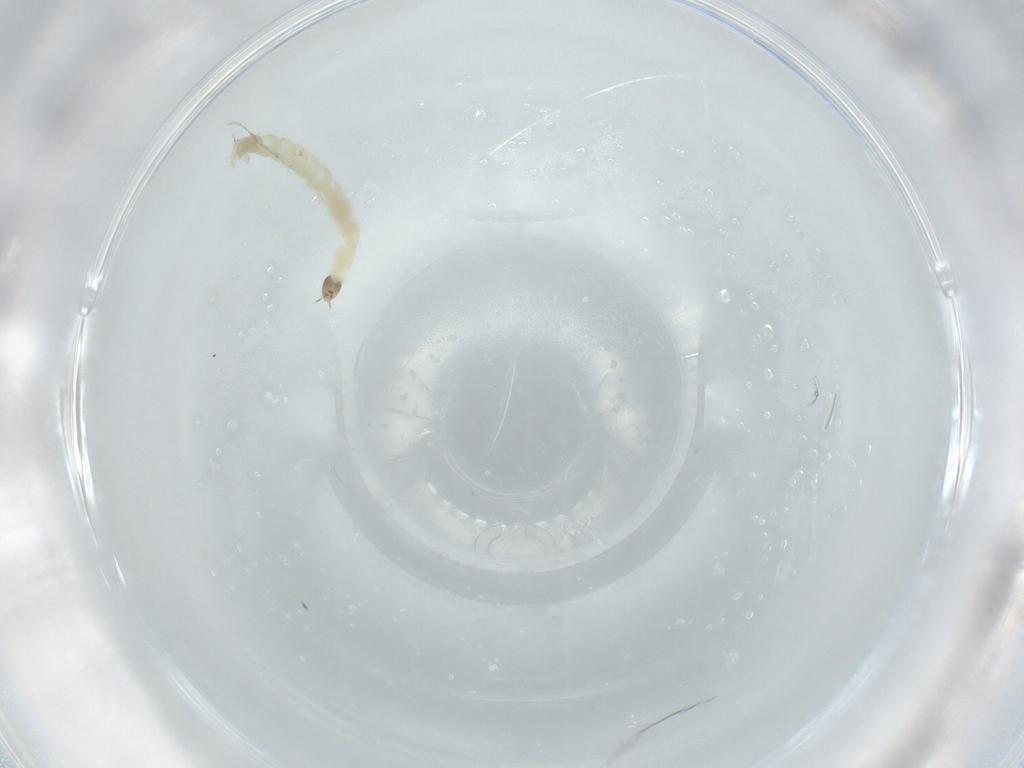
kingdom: Animalia
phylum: Arthropoda
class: Insecta
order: Diptera
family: Chironomidae
